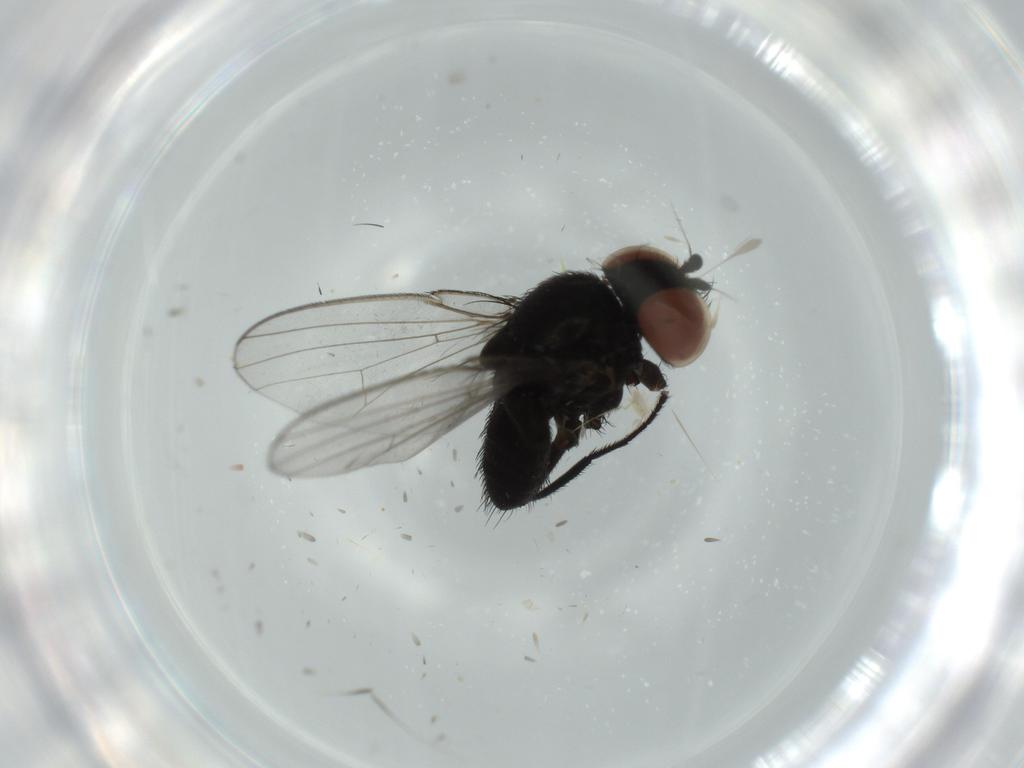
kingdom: Animalia
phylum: Arthropoda
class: Insecta
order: Diptera
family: Milichiidae
